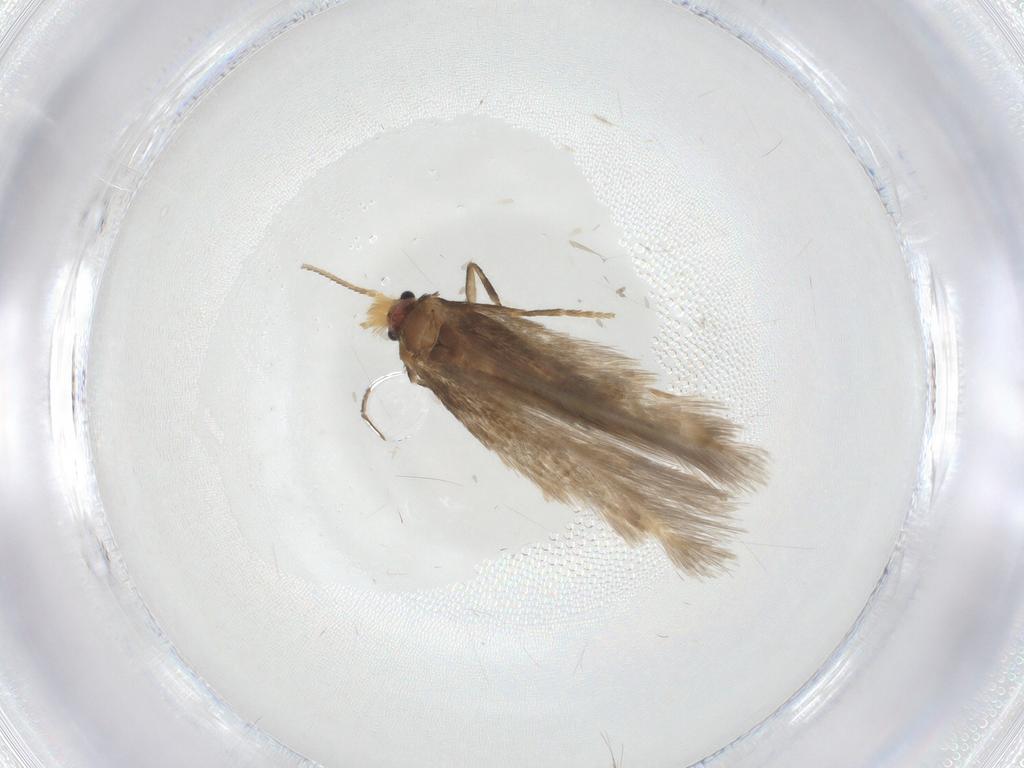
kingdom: Animalia
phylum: Arthropoda
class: Insecta
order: Lepidoptera
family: Nepticulidae
